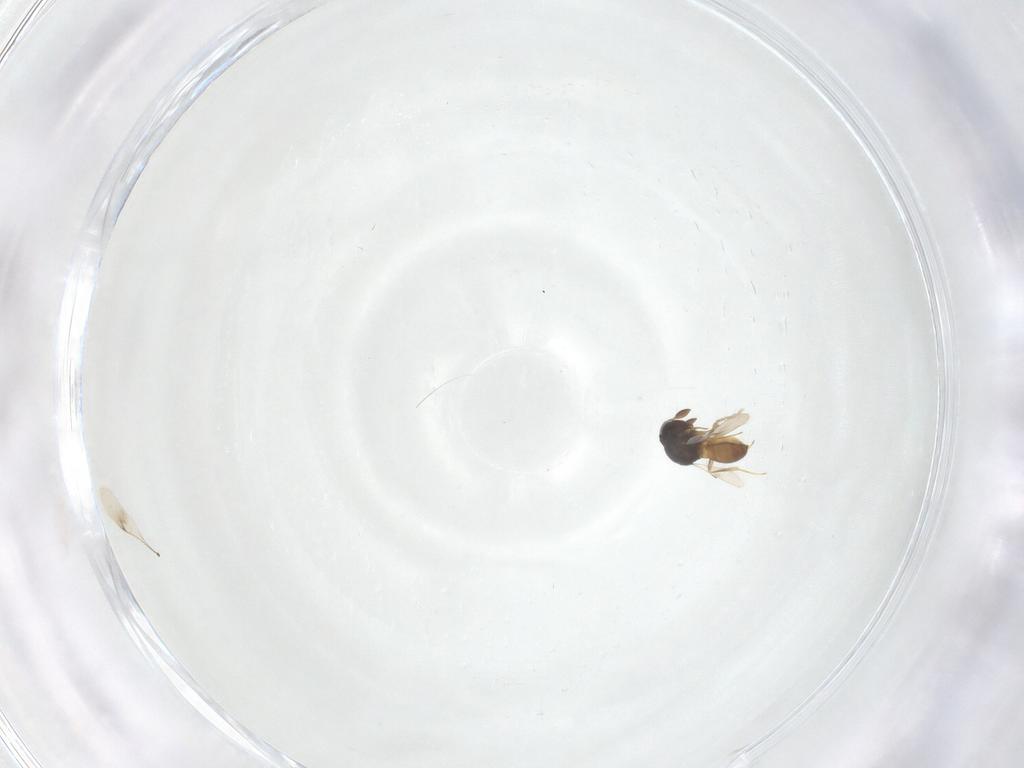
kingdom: Animalia
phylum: Arthropoda
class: Insecta
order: Hymenoptera
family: Scelionidae
